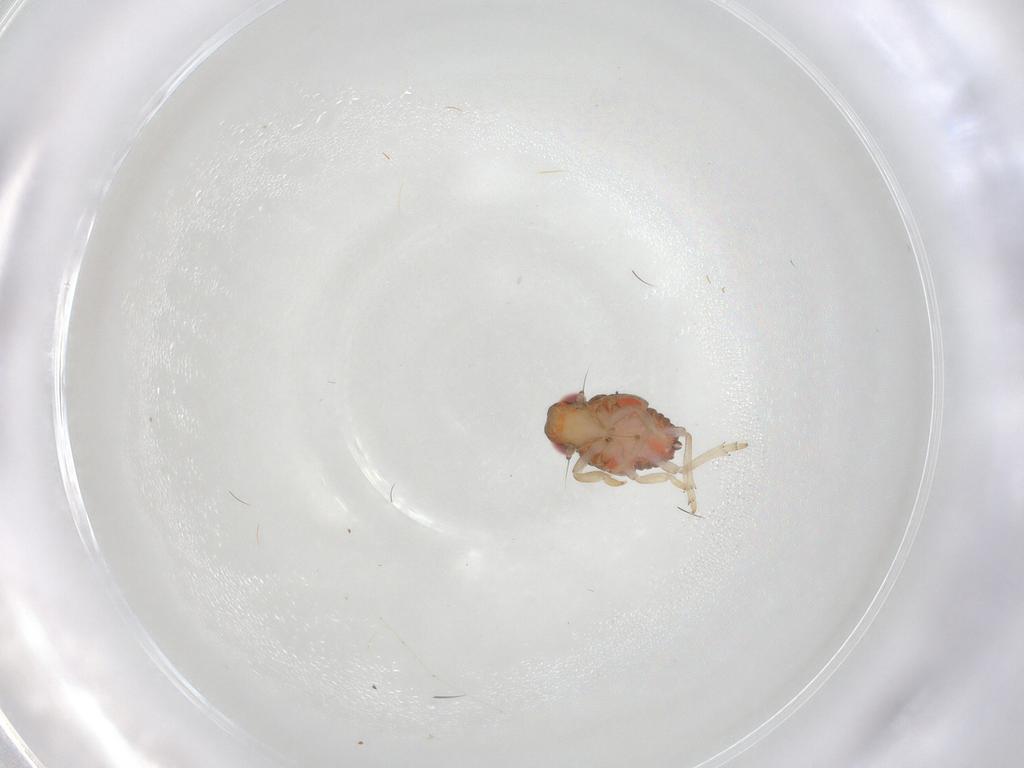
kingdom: Animalia
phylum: Arthropoda
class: Insecta
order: Hemiptera
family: Issidae
